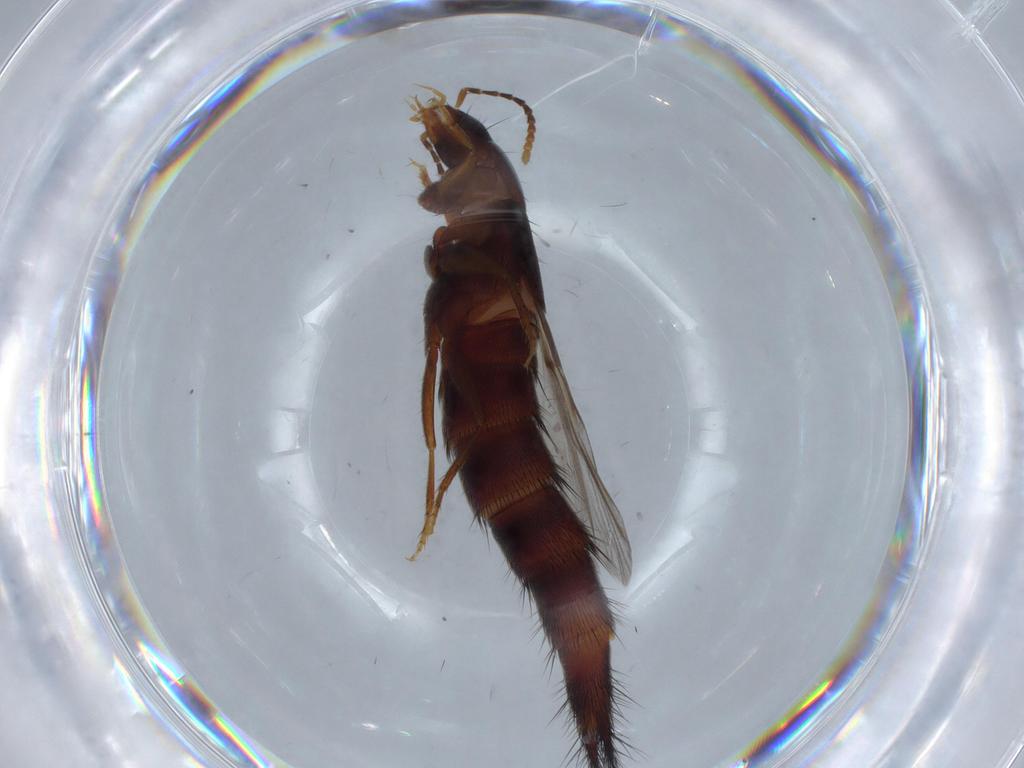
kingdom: Animalia
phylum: Arthropoda
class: Insecta
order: Coleoptera
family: Staphylinidae
